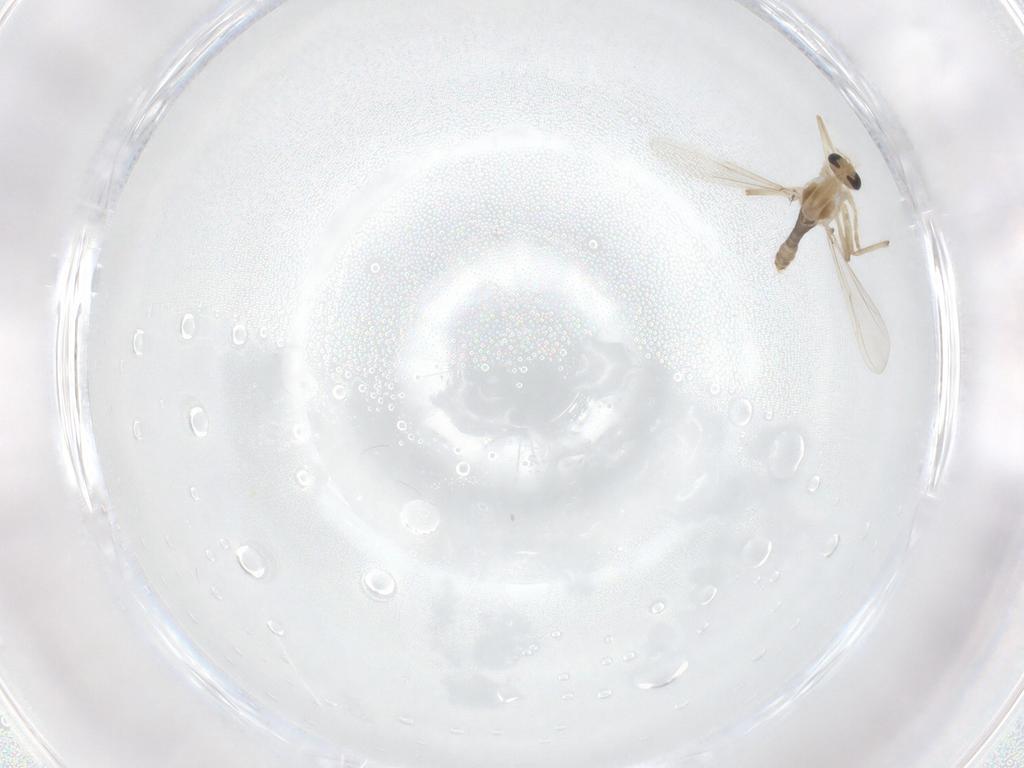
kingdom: Animalia
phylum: Arthropoda
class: Insecta
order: Diptera
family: Chironomidae
